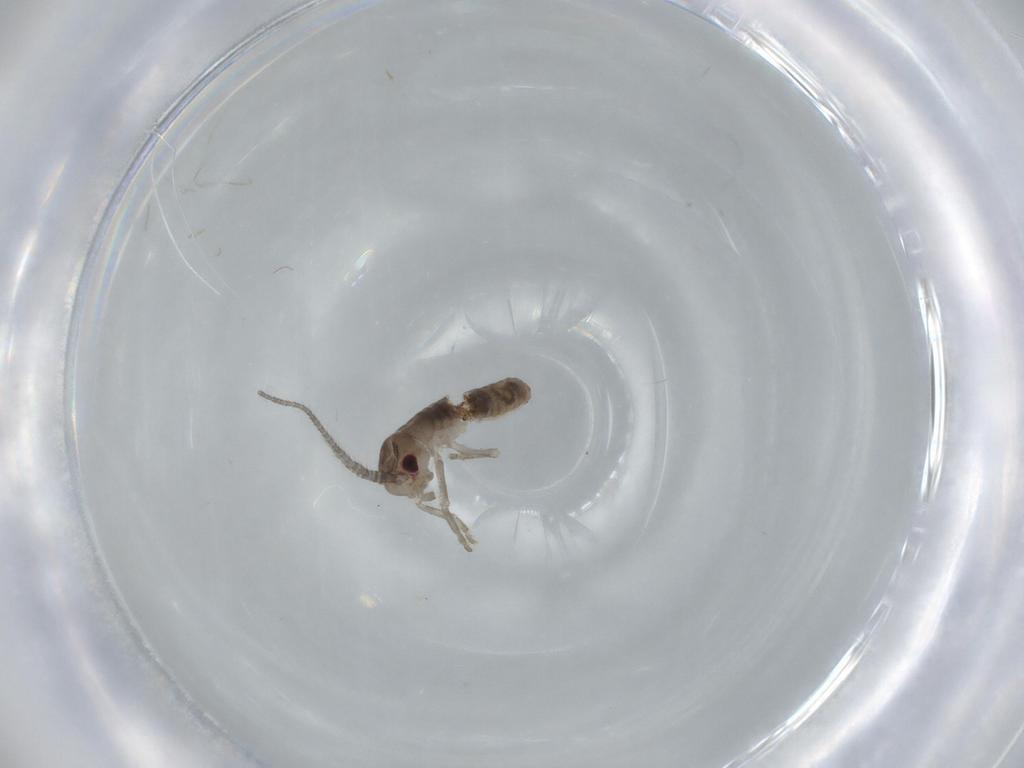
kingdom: Animalia
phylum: Arthropoda
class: Insecta
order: Orthoptera
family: Gryllidae
